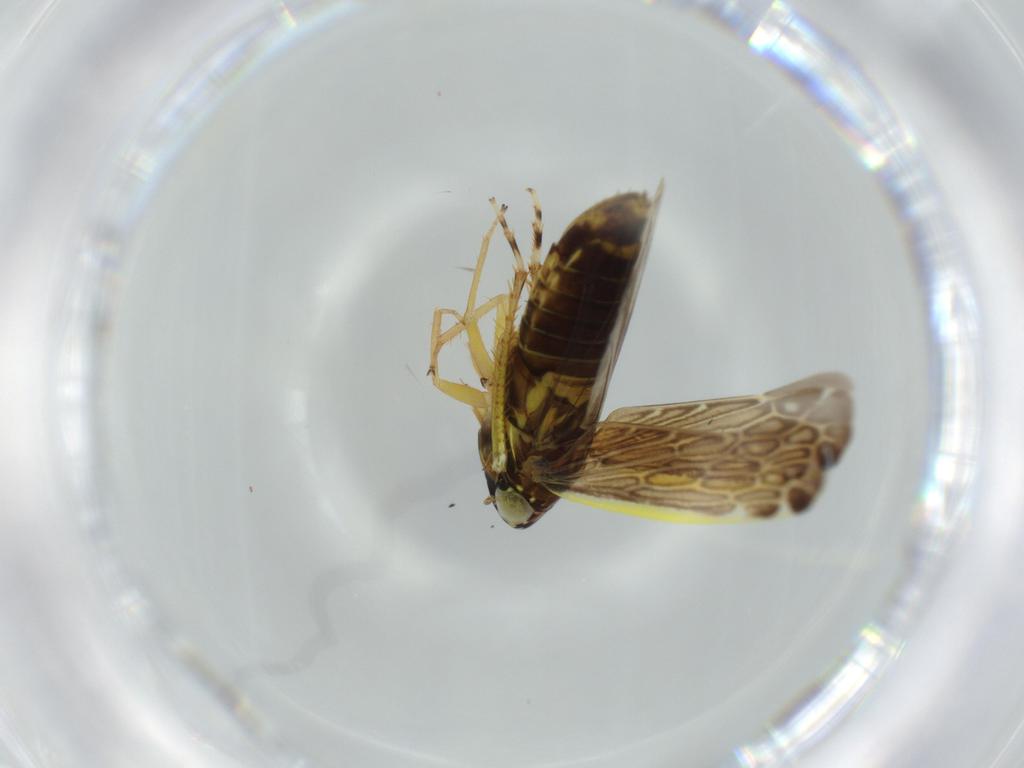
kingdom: Animalia
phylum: Arthropoda
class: Insecta
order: Hemiptera
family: Cicadellidae
